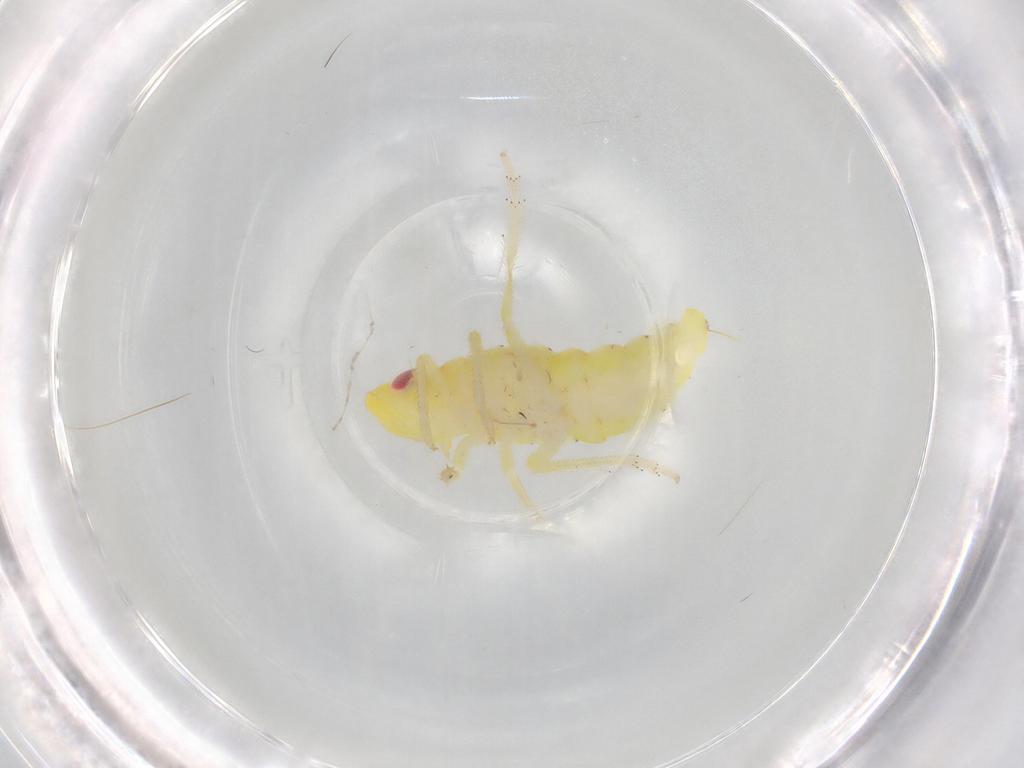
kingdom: Animalia
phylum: Arthropoda
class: Insecta
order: Hemiptera
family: Tropiduchidae
